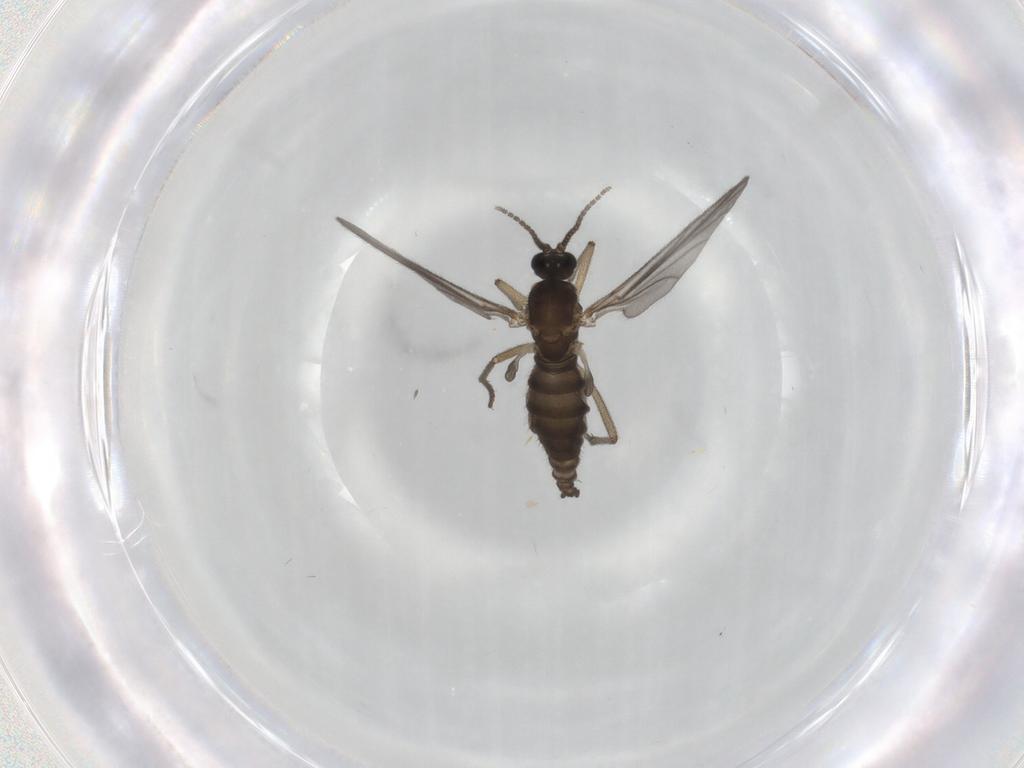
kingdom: Animalia
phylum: Arthropoda
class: Insecta
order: Diptera
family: Sciaridae
